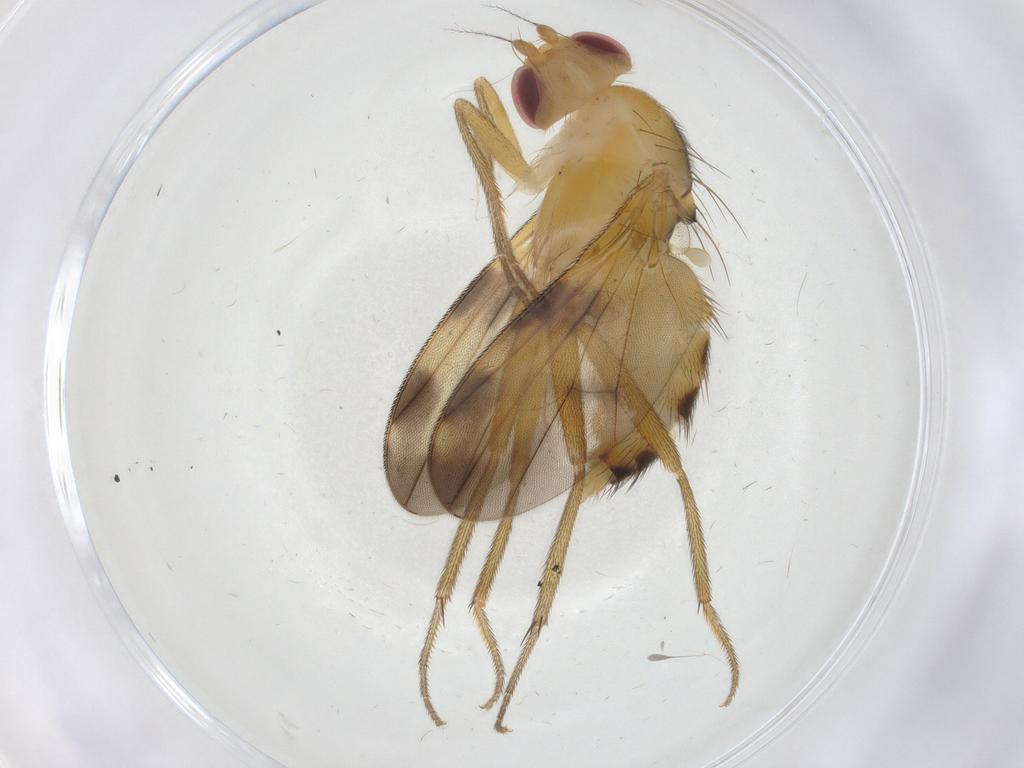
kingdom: Animalia
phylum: Arthropoda
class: Insecta
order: Diptera
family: Clusiidae
